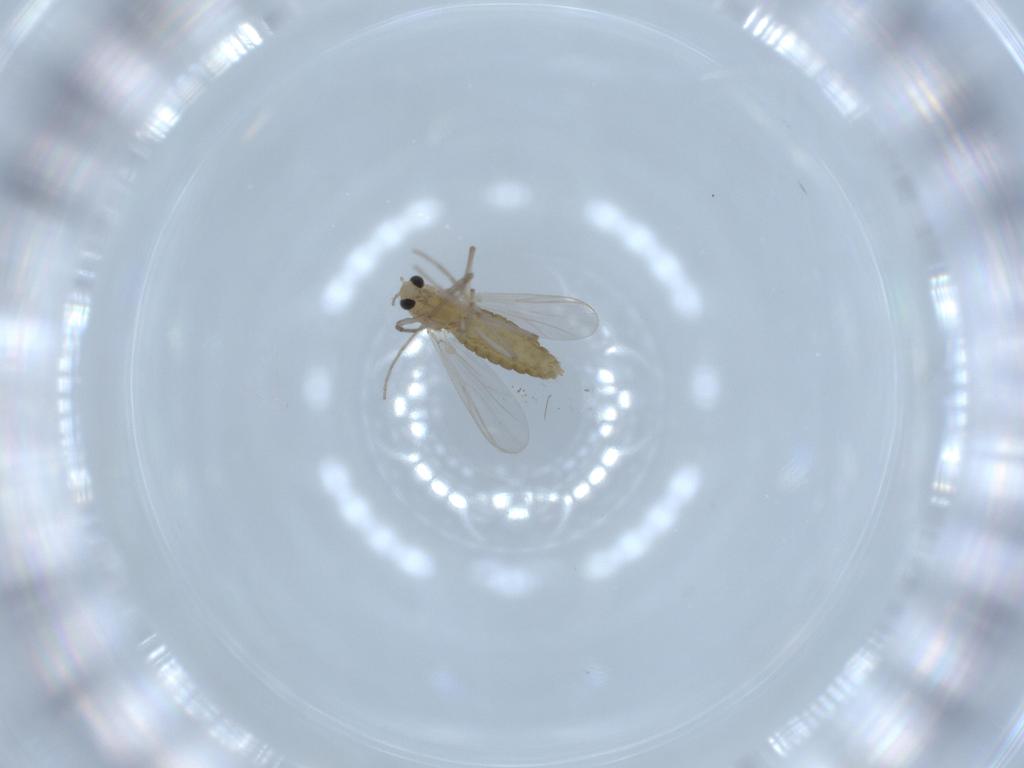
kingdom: Animalia
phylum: Arthropoda
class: Insecta
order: Diptera
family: Chironomidae
